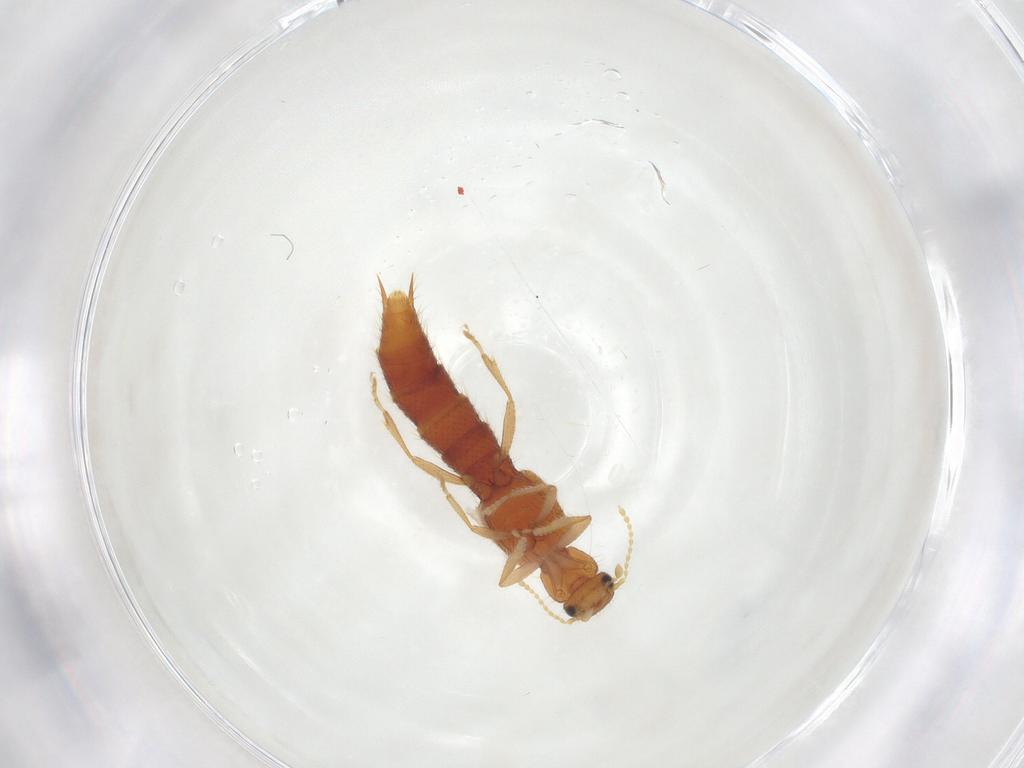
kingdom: Animalia
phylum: Arthropoda
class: Insecta
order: Coleoptera
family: Staphylinidae
